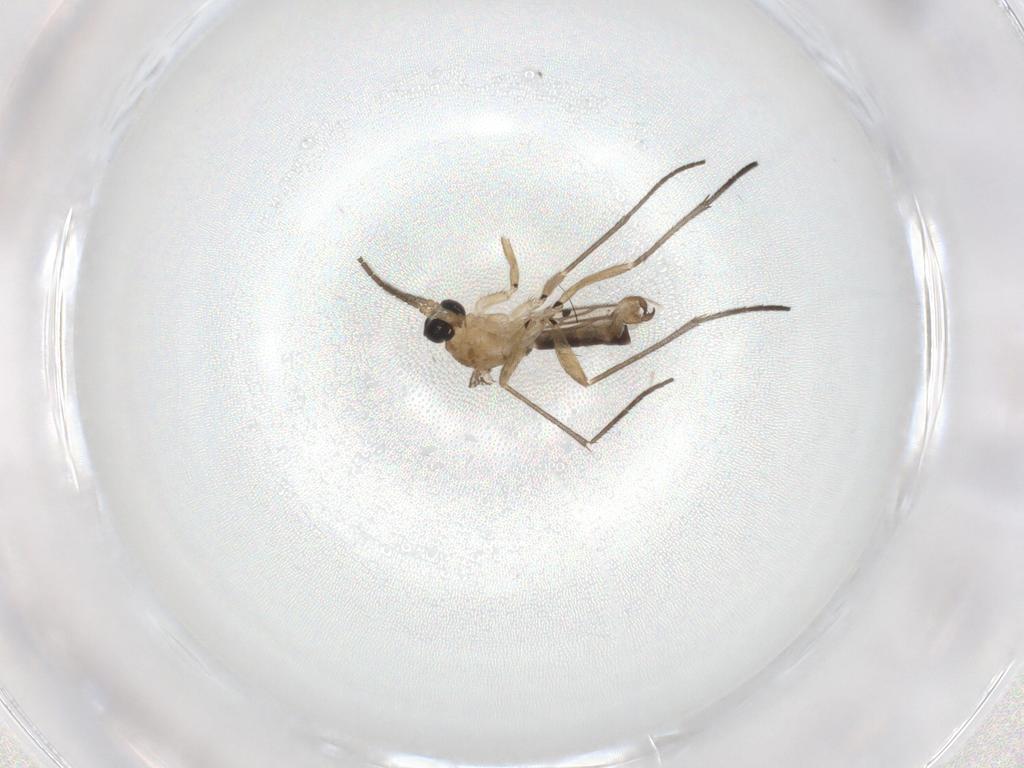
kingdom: Animalia
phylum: Arthropoda
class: Insecta
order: Diptera
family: Sciaridae
